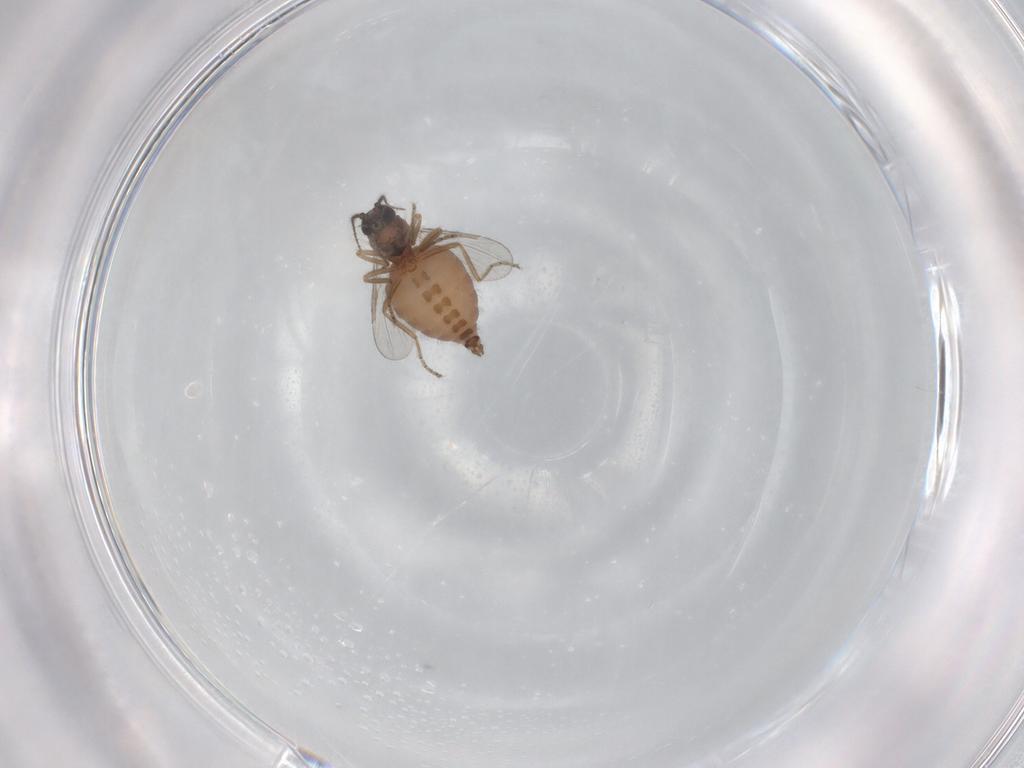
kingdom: Animalia
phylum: Arthropoda
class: Insecta
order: Diptera
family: Ceratopogonidae
